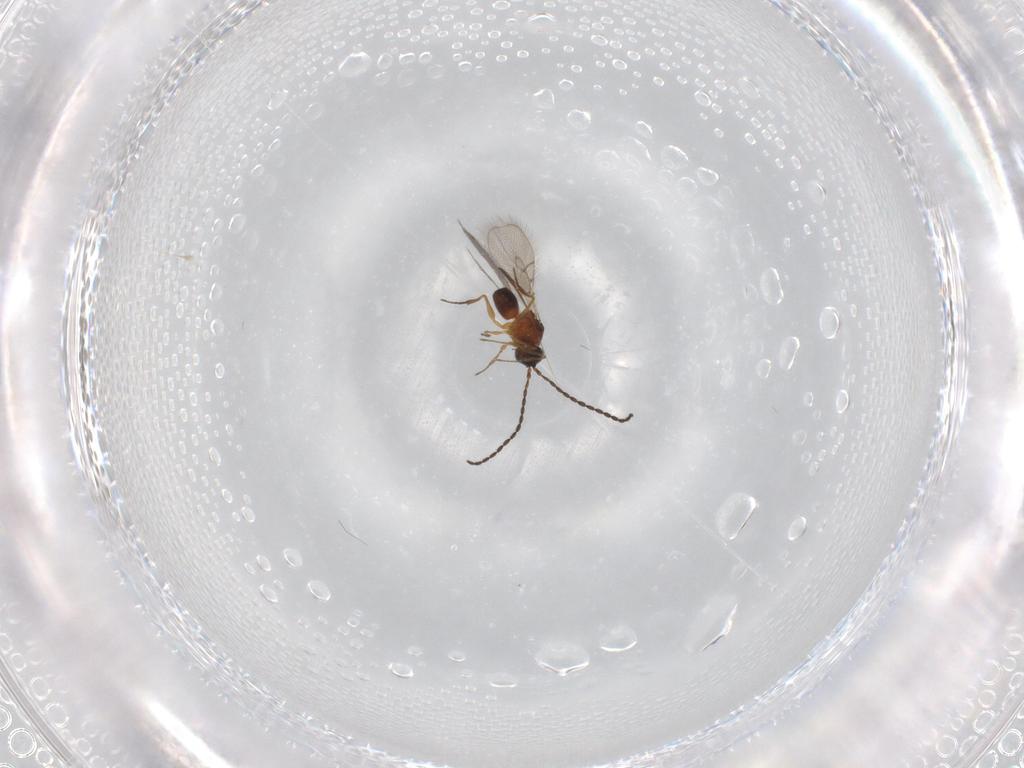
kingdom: Animalia
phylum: Arthropoda
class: Insecta
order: Hymenoptera
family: Figitidae
